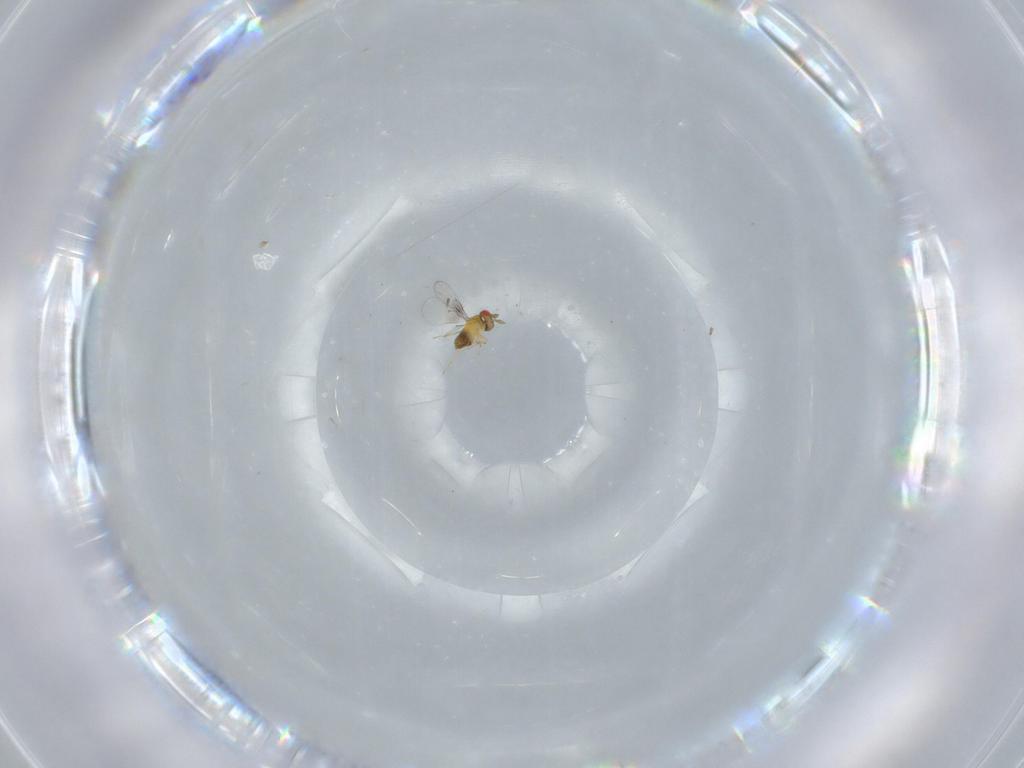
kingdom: Animalia
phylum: Arthropoda
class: Insecta
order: Hymenoptera
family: Trichogrammatidae
